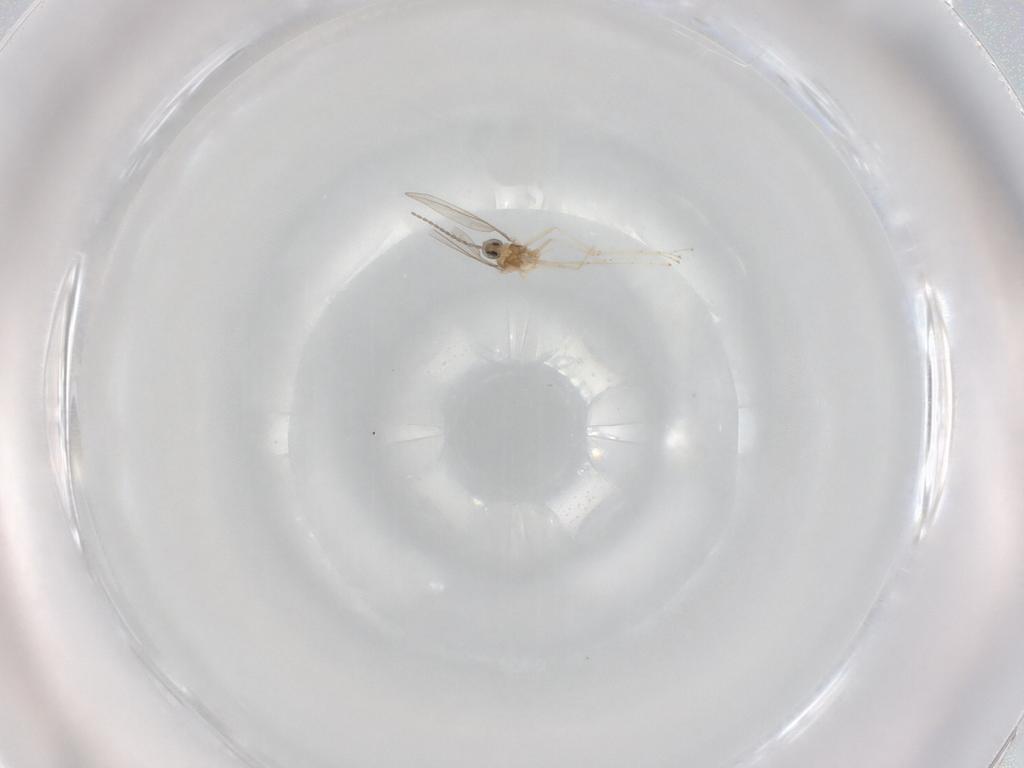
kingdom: Animalia
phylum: Arthropoda
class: Insecta
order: Diptera
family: Cecidomyiidae
